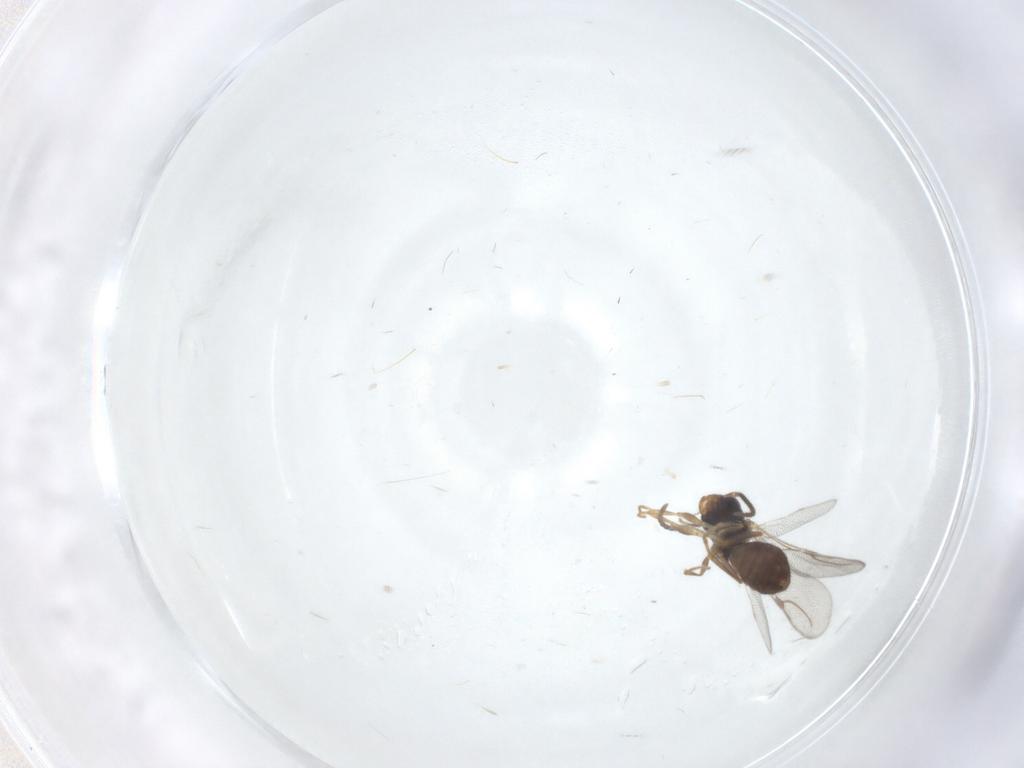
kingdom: Animalia
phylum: Arthropoda
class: Insecta
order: Hymenoptera
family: Bethylidae
